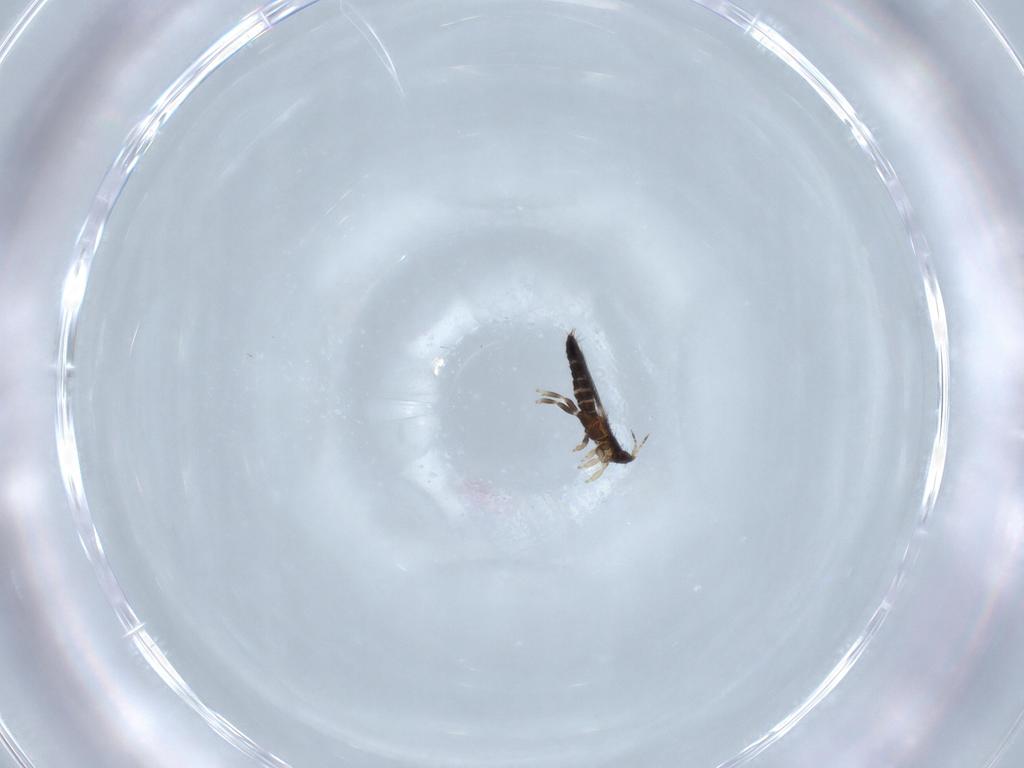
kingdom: Animalia
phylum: Arthropoda
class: Insecta
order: Thysanoptera
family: Thripidae
